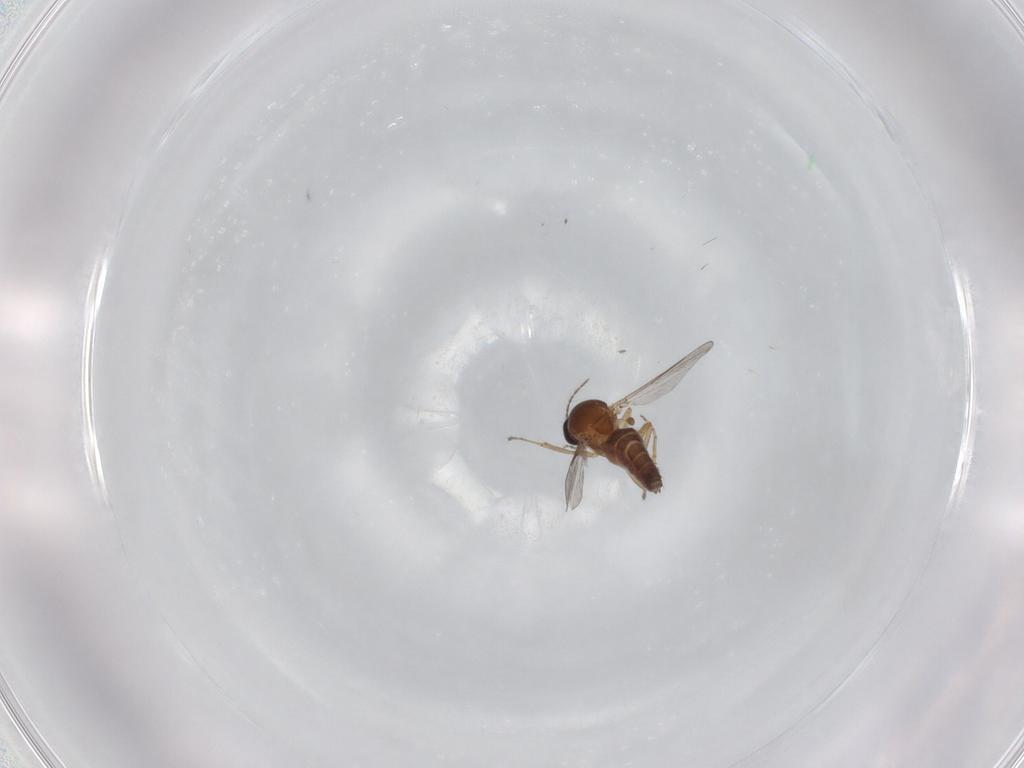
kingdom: Animalia
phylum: Arthropoda
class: Insecta
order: Diptera
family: Ceratopogonidae
